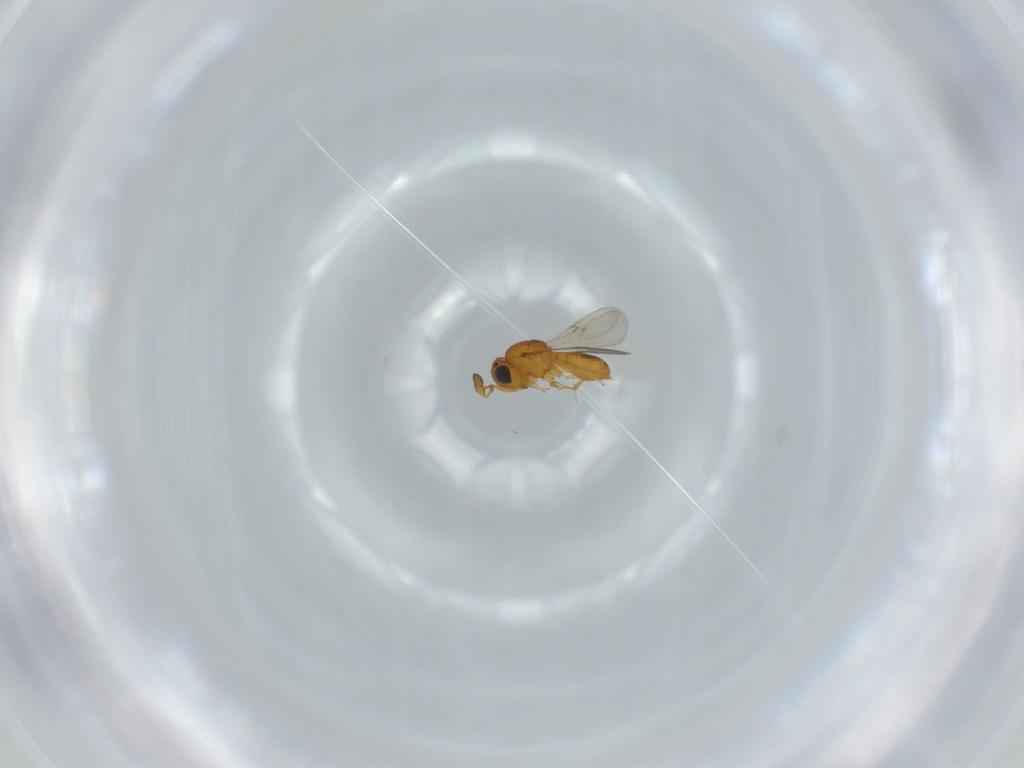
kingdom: Animalia
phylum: Arthropoda
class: Insecta
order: Hymenoptera
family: Scelionidae
